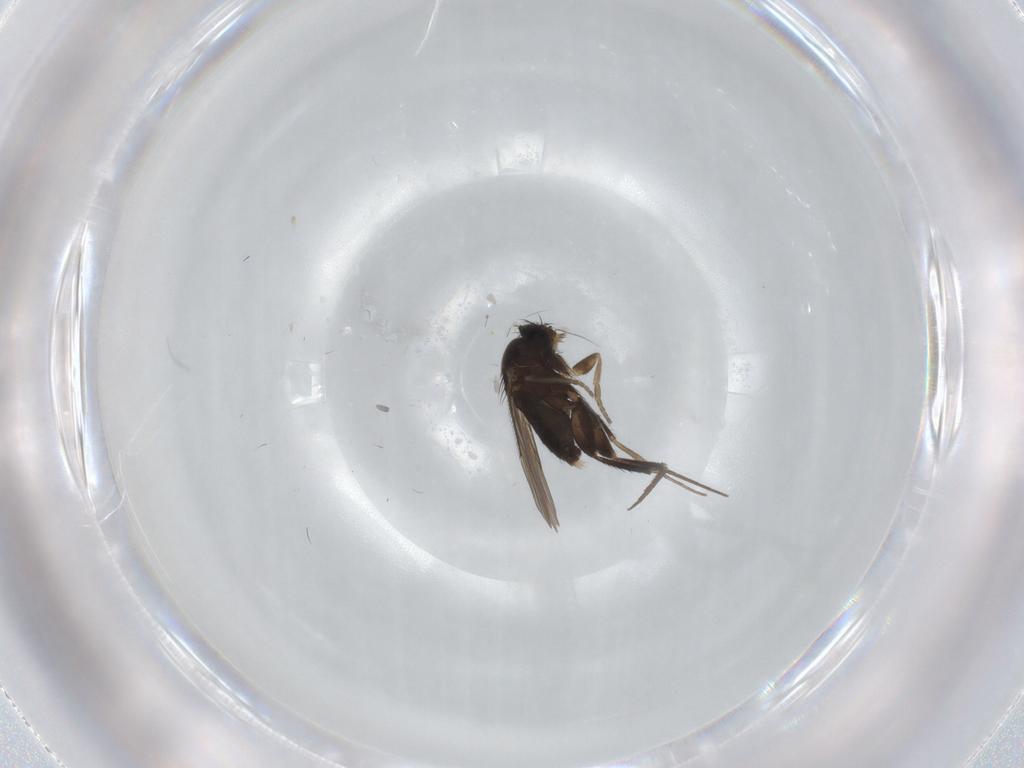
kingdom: Animalia
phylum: Arthropoda
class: Insecta
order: Diptera
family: Phoridae
